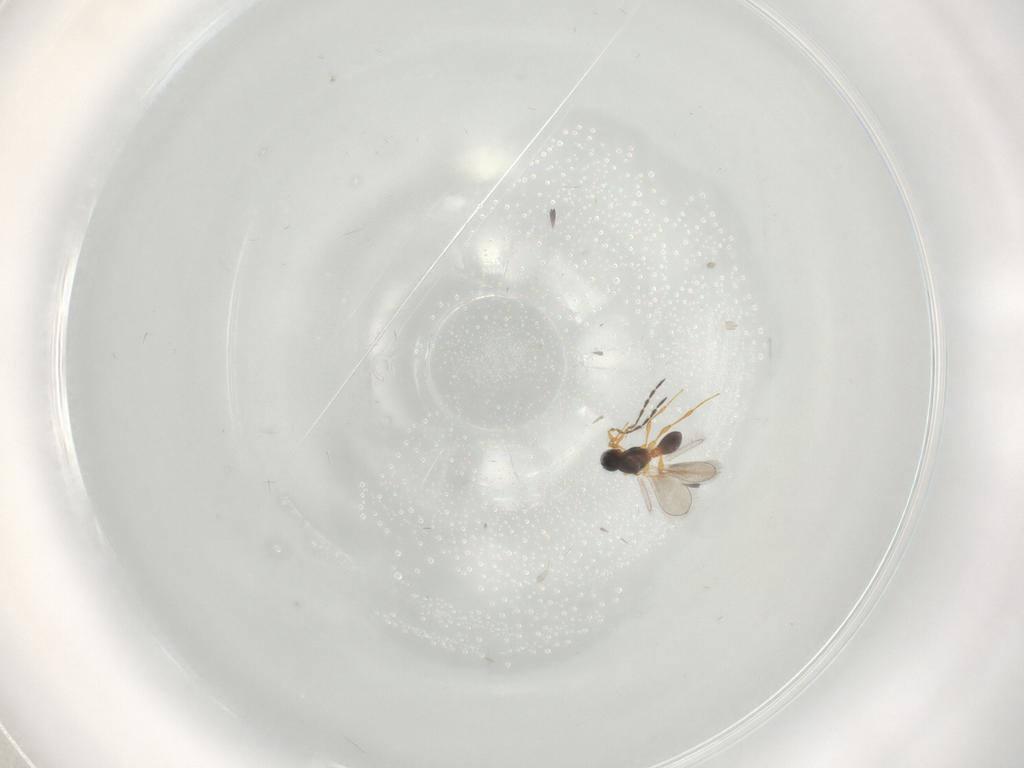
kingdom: Animalia
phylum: Arthropoda
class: Insecta
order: Hymenoptera
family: Platygastridae
